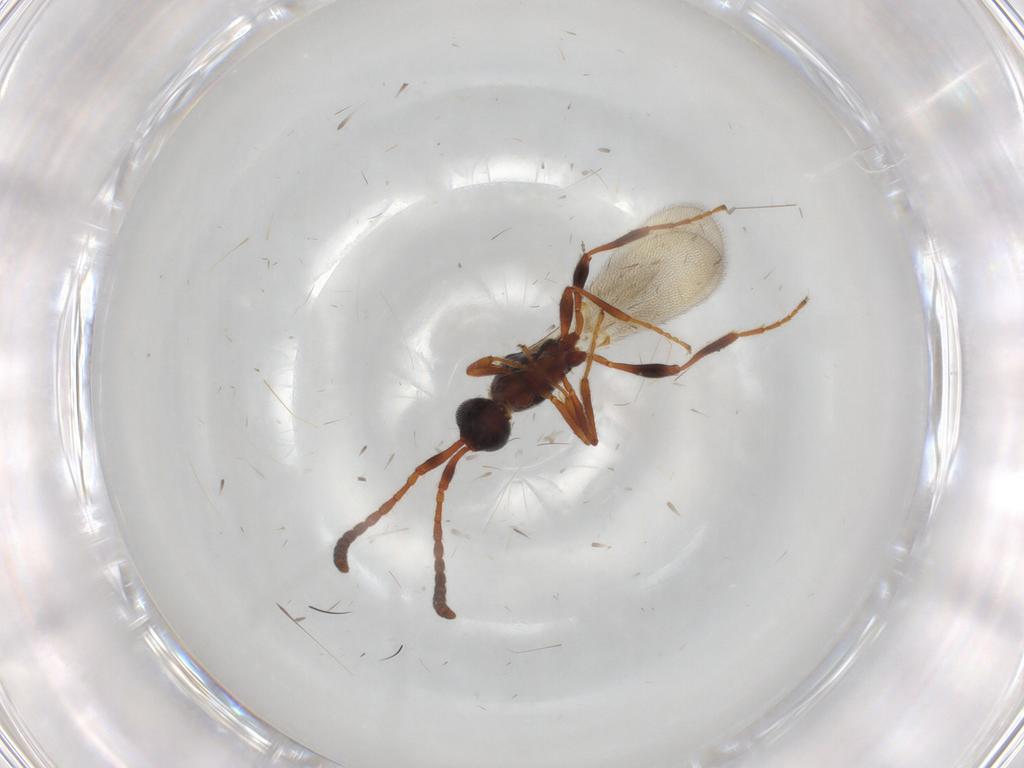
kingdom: Animalia
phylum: Arthropoda
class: Insecta
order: Hymenoptera
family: Diapriidae
